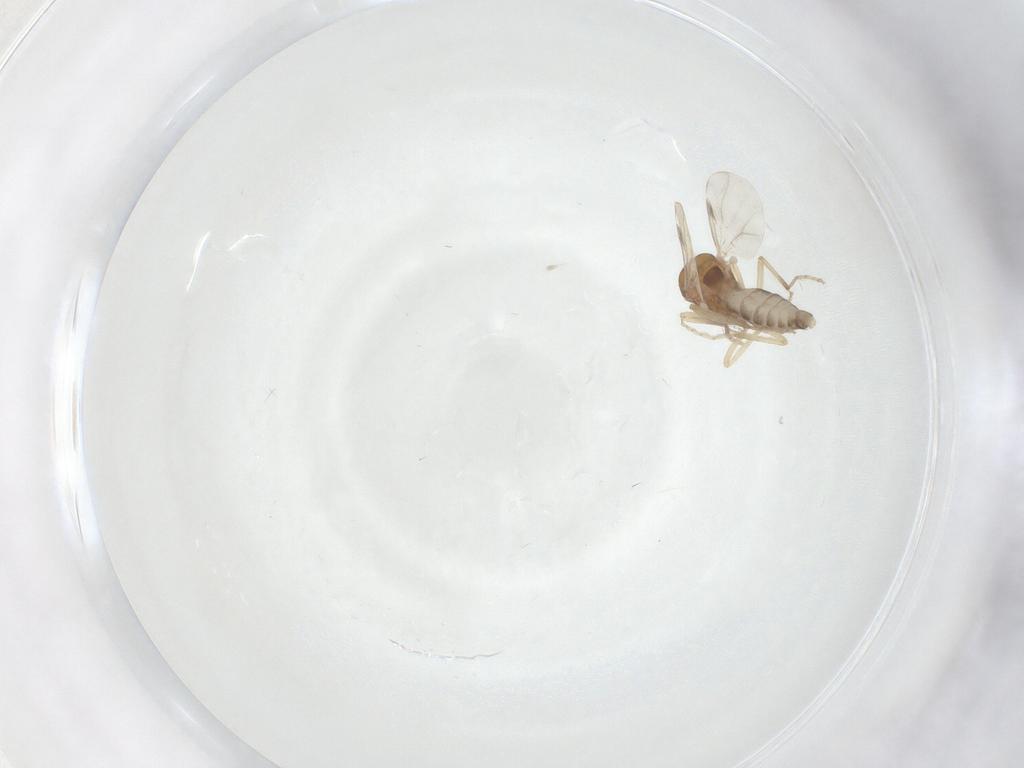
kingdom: Animalia
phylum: Arthropoda
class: Insecta
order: Diptera
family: Ceratopogonidae
